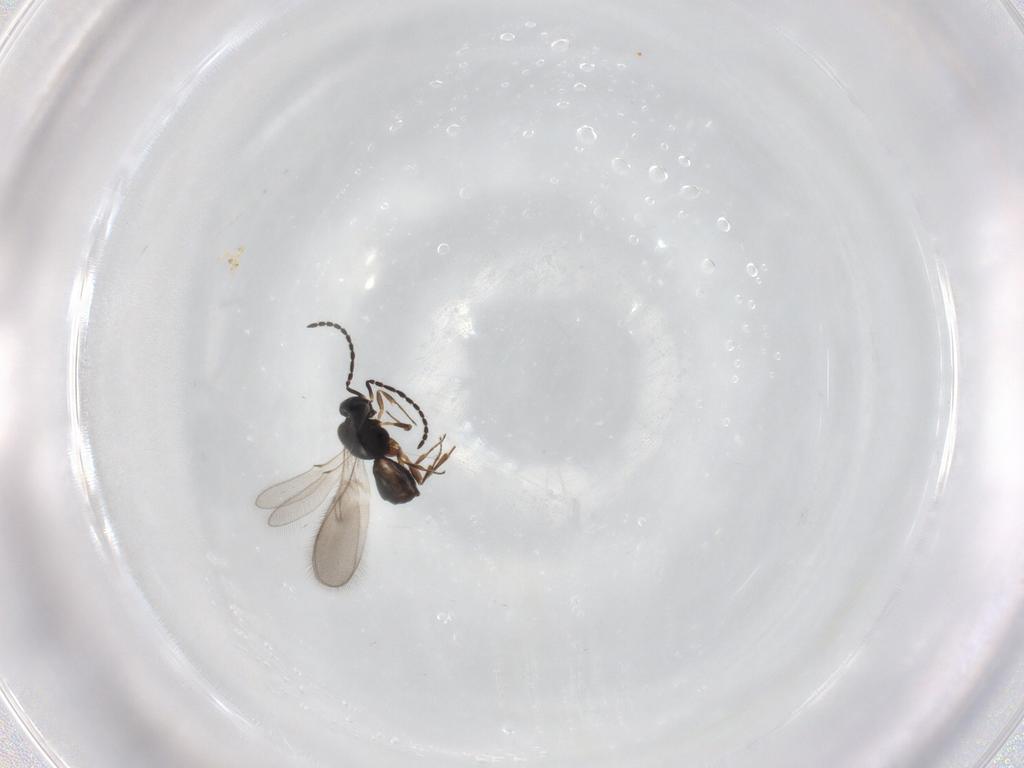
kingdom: Animalia
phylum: Arthropoda
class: Insecta
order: Hymenoptera
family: Scelionidae
